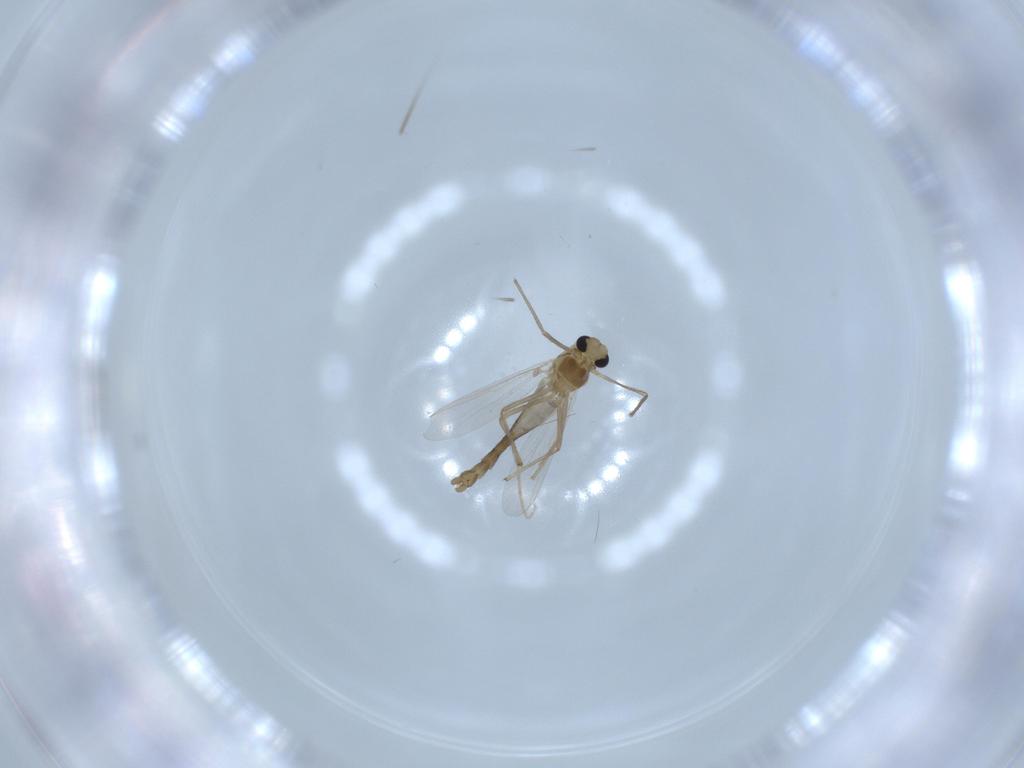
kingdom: Animalia
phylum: Arthropoda
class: Insecta
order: Diptera
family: Chironomidae
